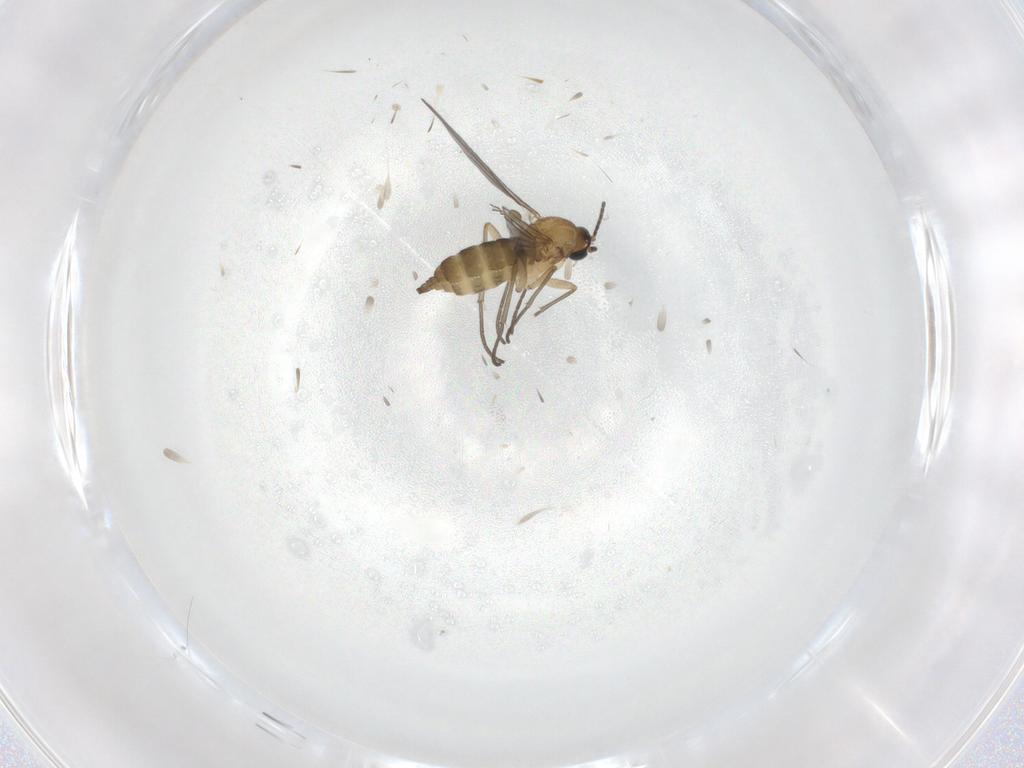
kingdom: Animalia
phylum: Arthropoda
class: Insecta
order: Diptera
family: Sciaridae
